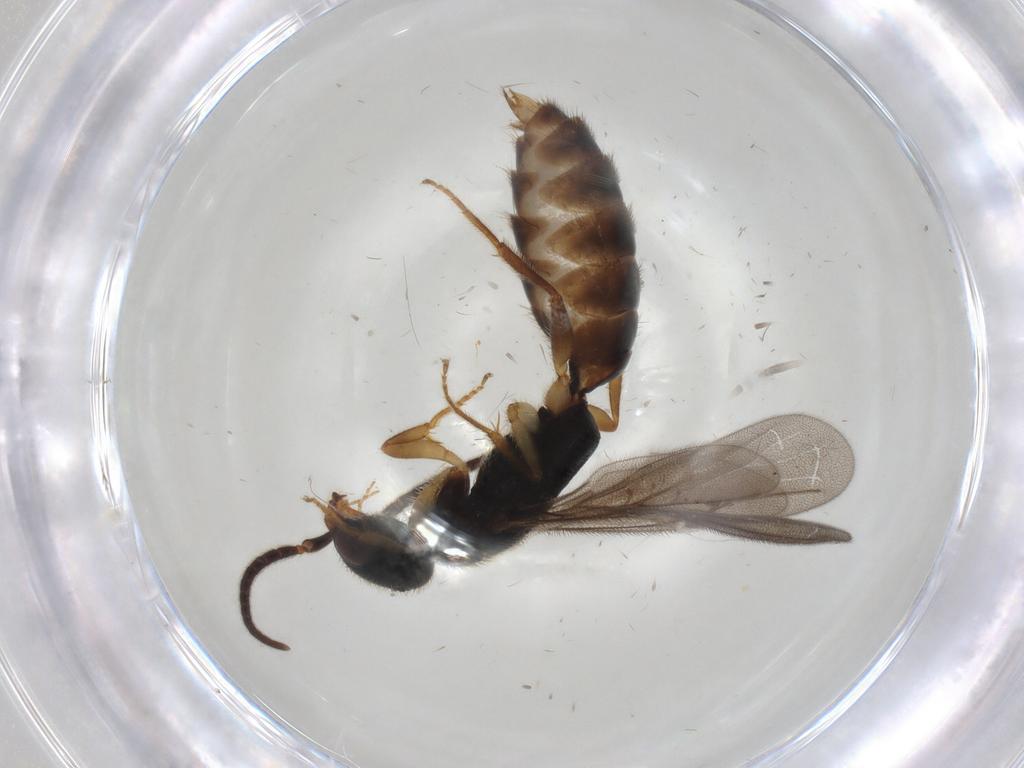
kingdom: Animalia
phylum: Arthropoda
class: Insecta
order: Hymenoptera
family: Bethylidae
